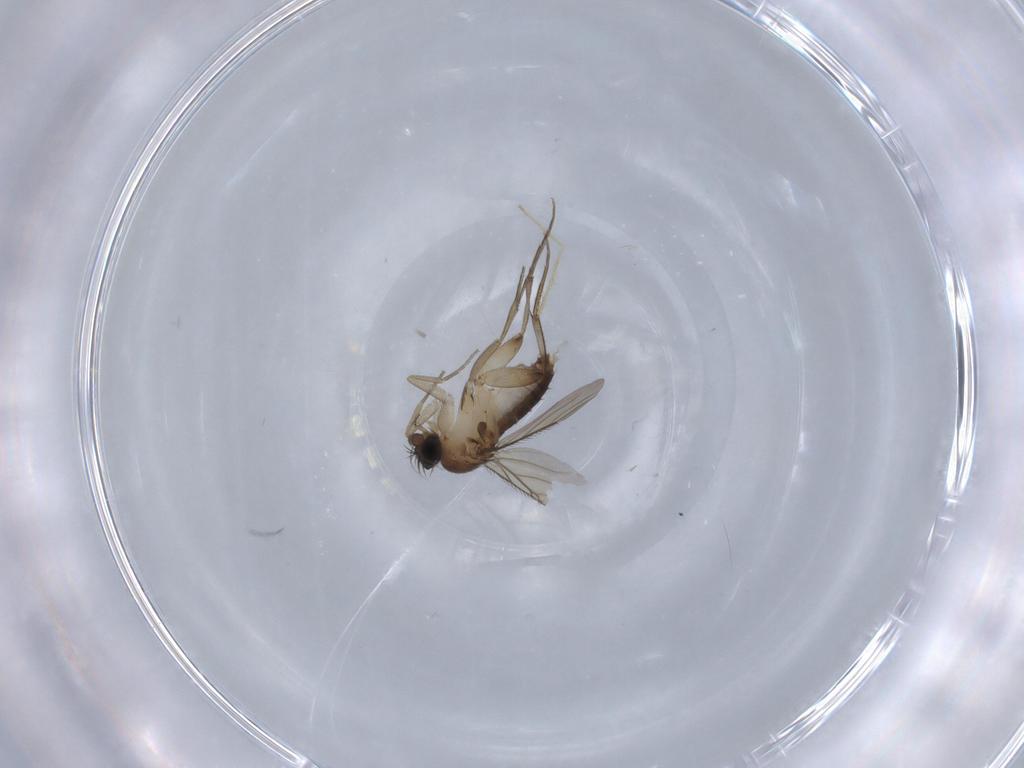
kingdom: Animalia
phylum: Arthropoda
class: Insecta
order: Diptera
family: Phoridae
